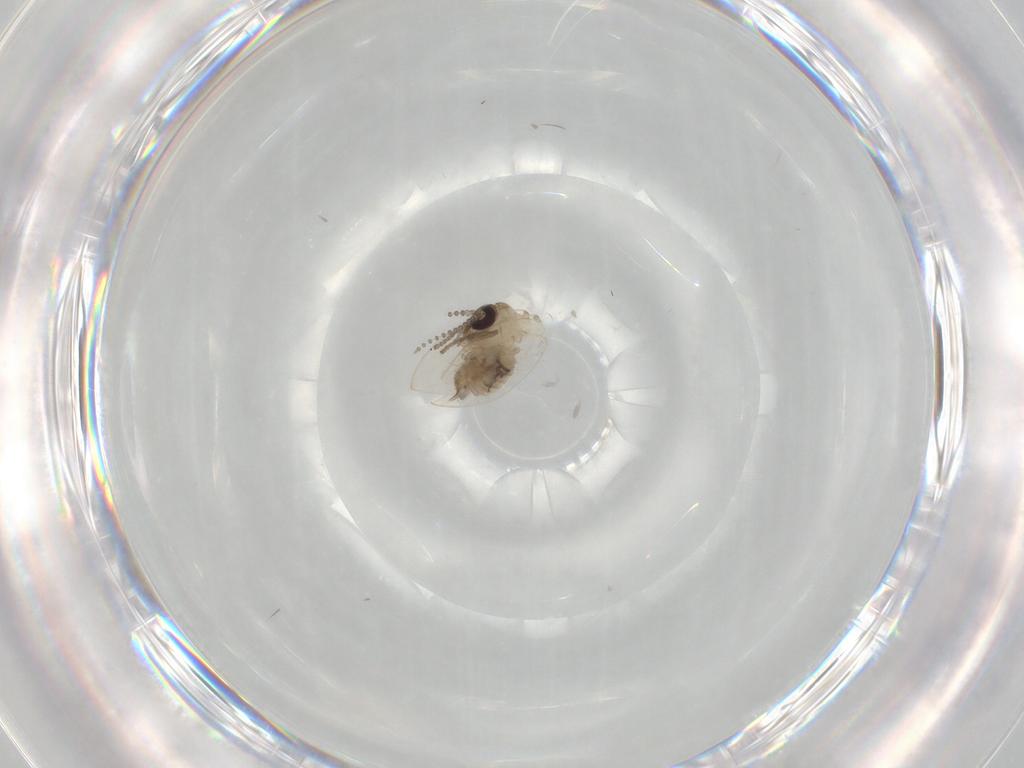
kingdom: Animalia
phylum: Arthropoda
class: Insecta
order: Diptera
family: Psychodidae
